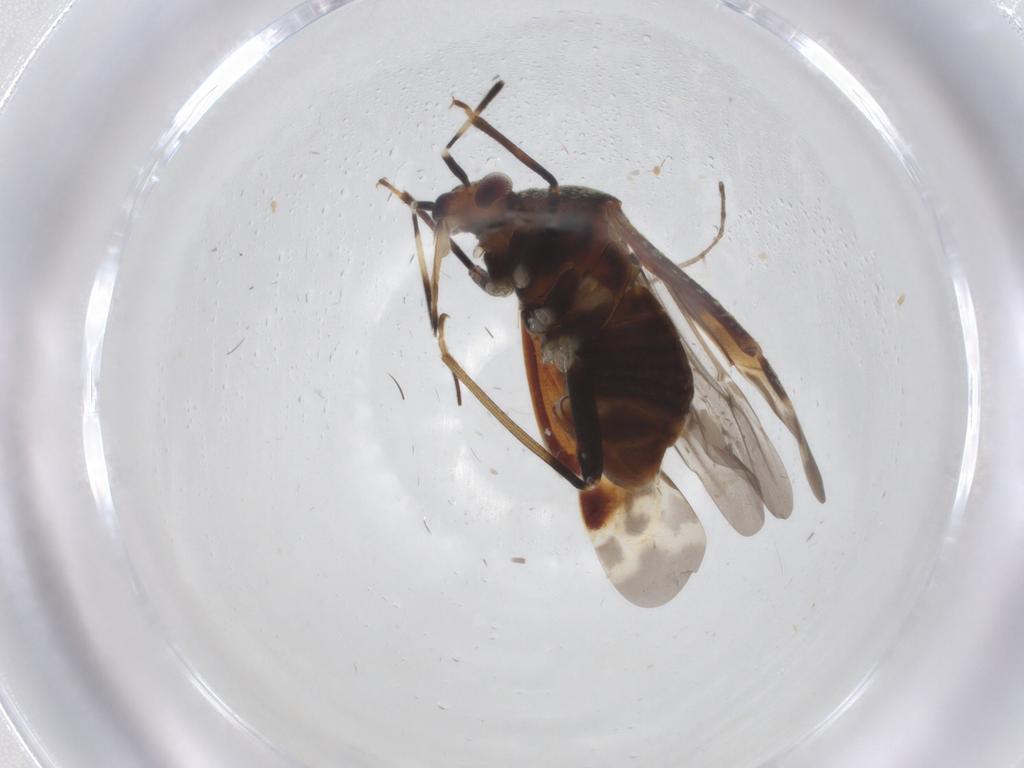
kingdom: Animalia
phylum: Arthropoda
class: Insecta
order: Hemiptera
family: Miridae
